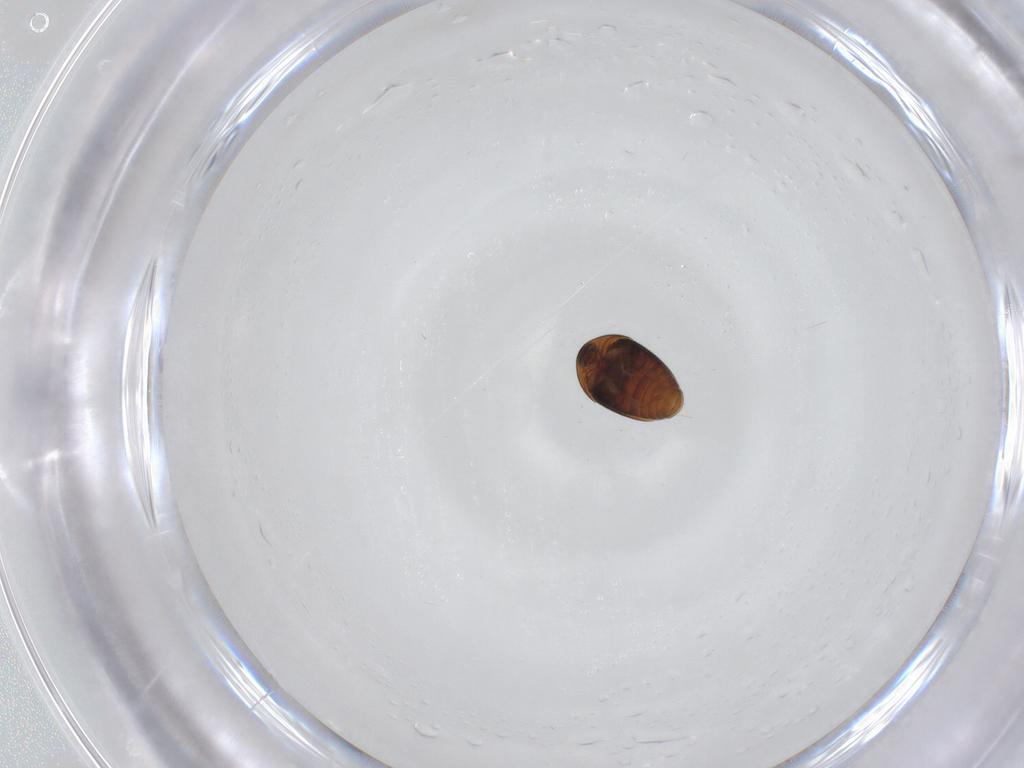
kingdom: Animalia
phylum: Arthropoda
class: Insecta
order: Coleoptera
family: Corylophidae
